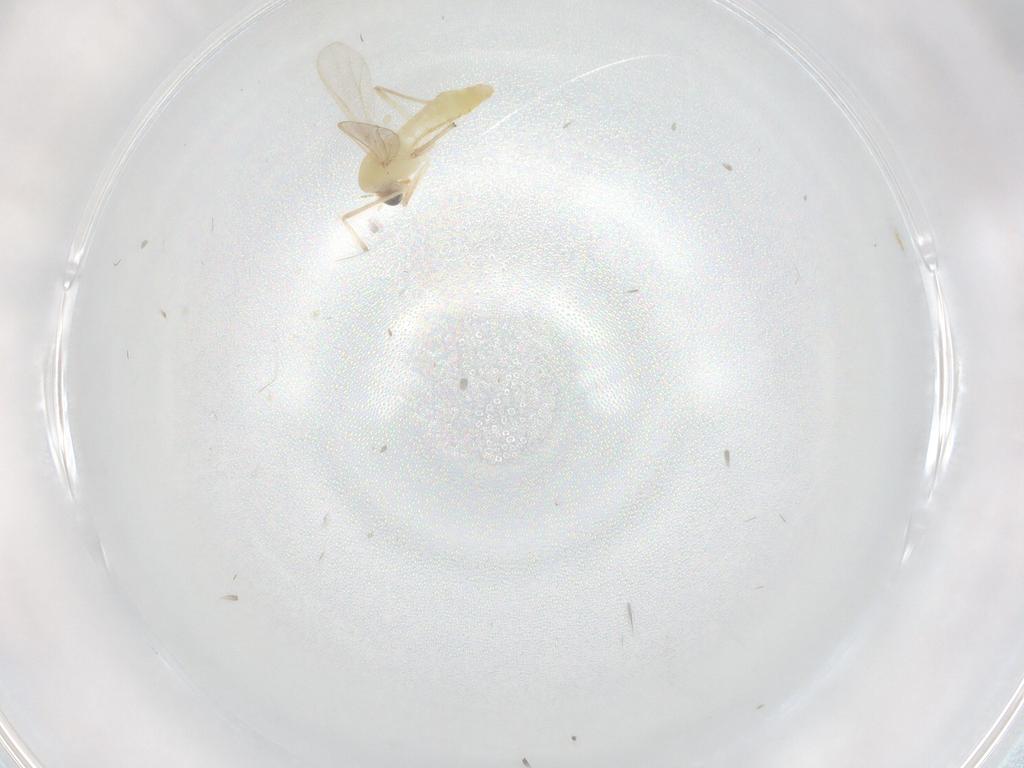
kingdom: Animalia
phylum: Arthropoda
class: Insecta
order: Diptera
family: Chironomidae
